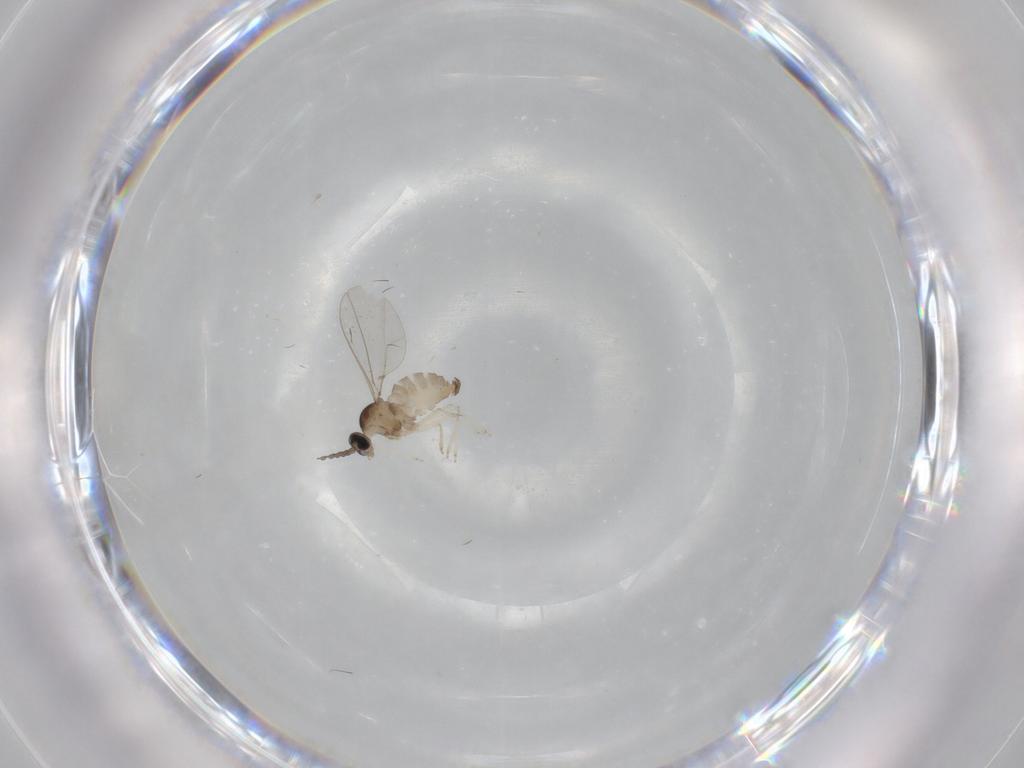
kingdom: Animalia
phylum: Arthropoda
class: Insecta
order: Diptera
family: Cecidomyiidae
